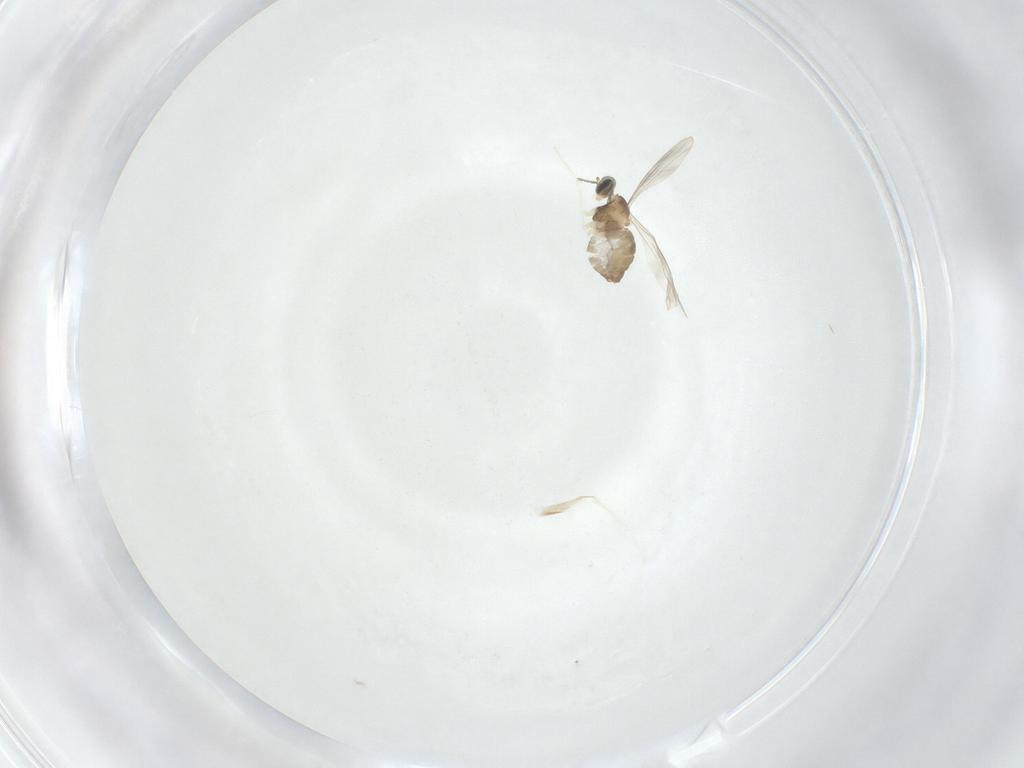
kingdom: Animalia
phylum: Arthropoda
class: Insecta
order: Diptera
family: Cecidomyiidae
